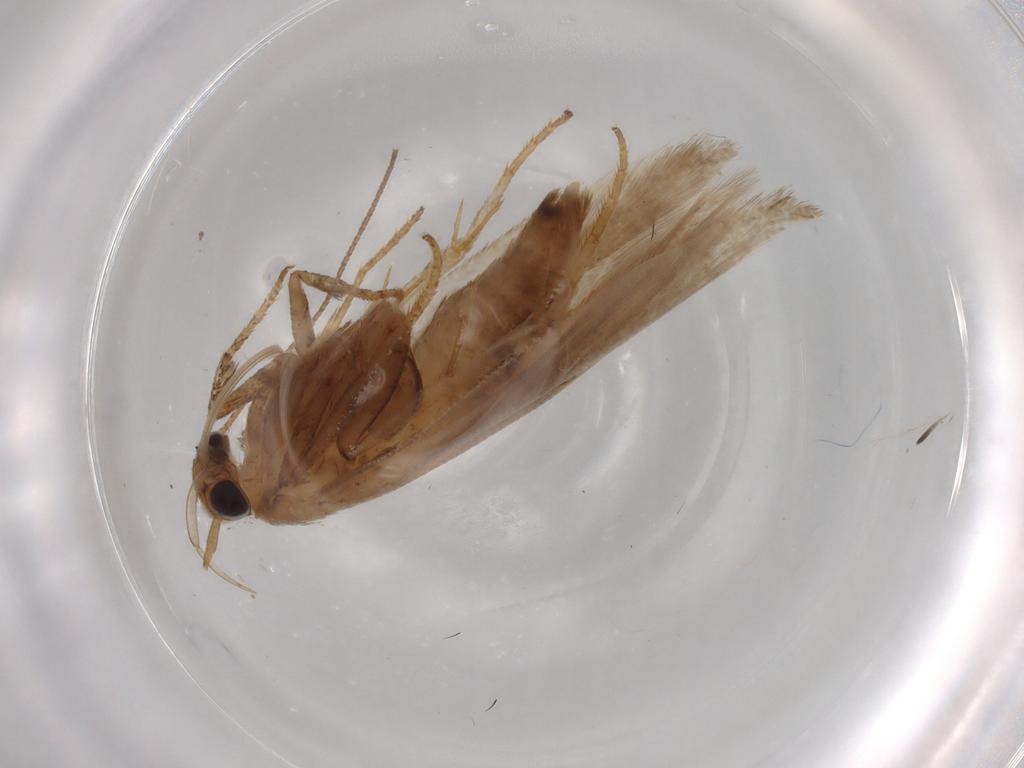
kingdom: Animalia
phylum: Arthropoda
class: Insecta
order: Lepidoptera
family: Gelechiidae
